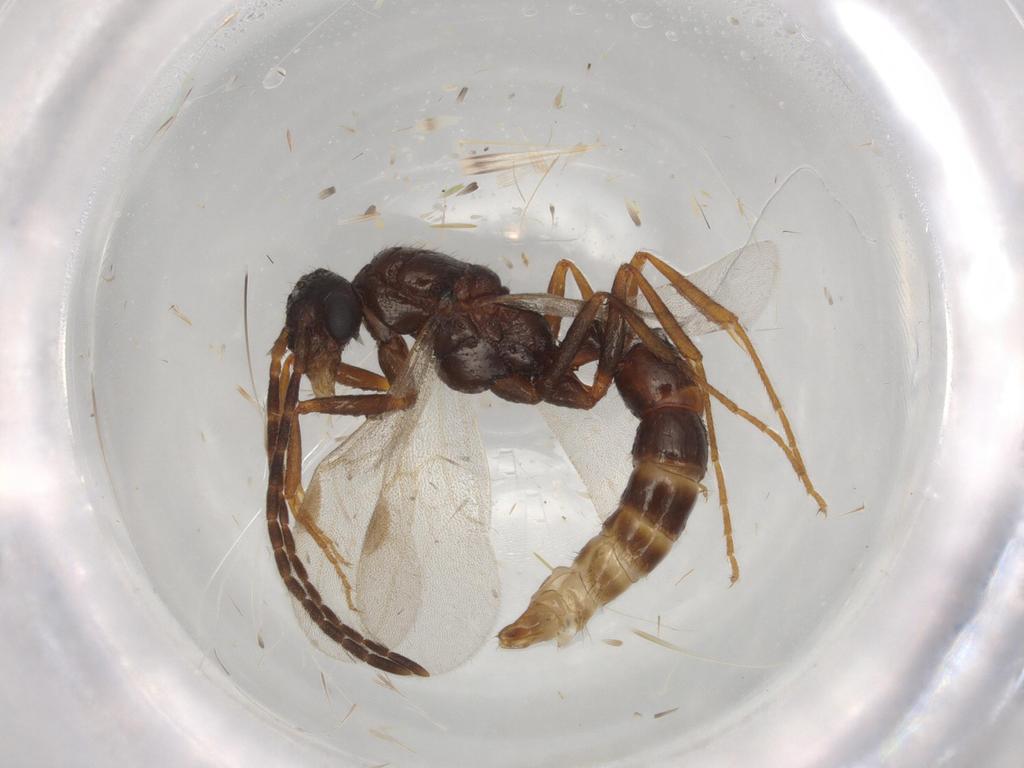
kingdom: Animalia
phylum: Arthropoda
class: Insecta
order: Hymenoptera
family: Formicidae
